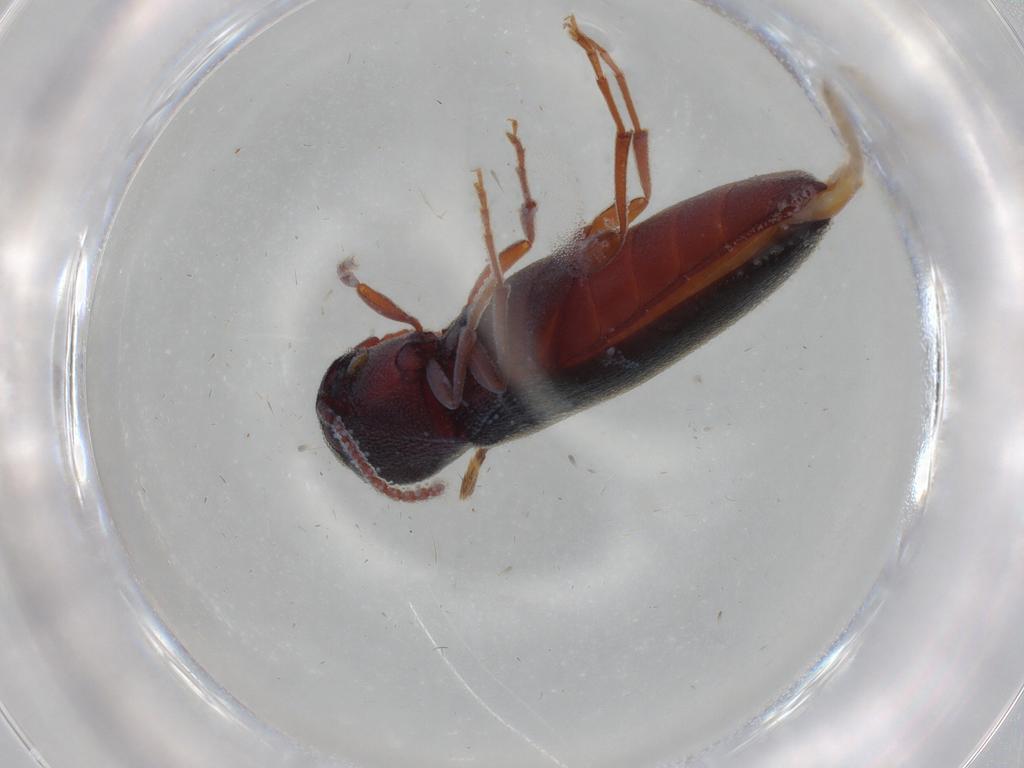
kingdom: Animalia
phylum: Arthropoda
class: Insecta
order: Coleoptera
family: Eucnemidae
